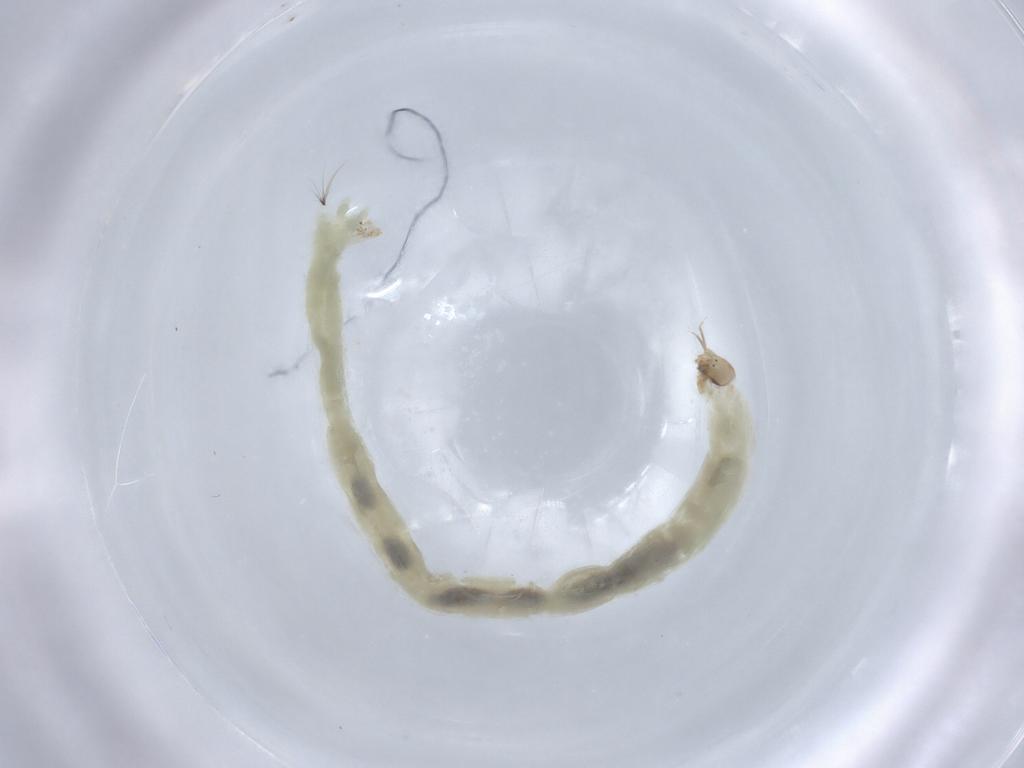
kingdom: Animalia
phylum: Arthropoda
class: Insecta
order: Diptera
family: Chironomidae
